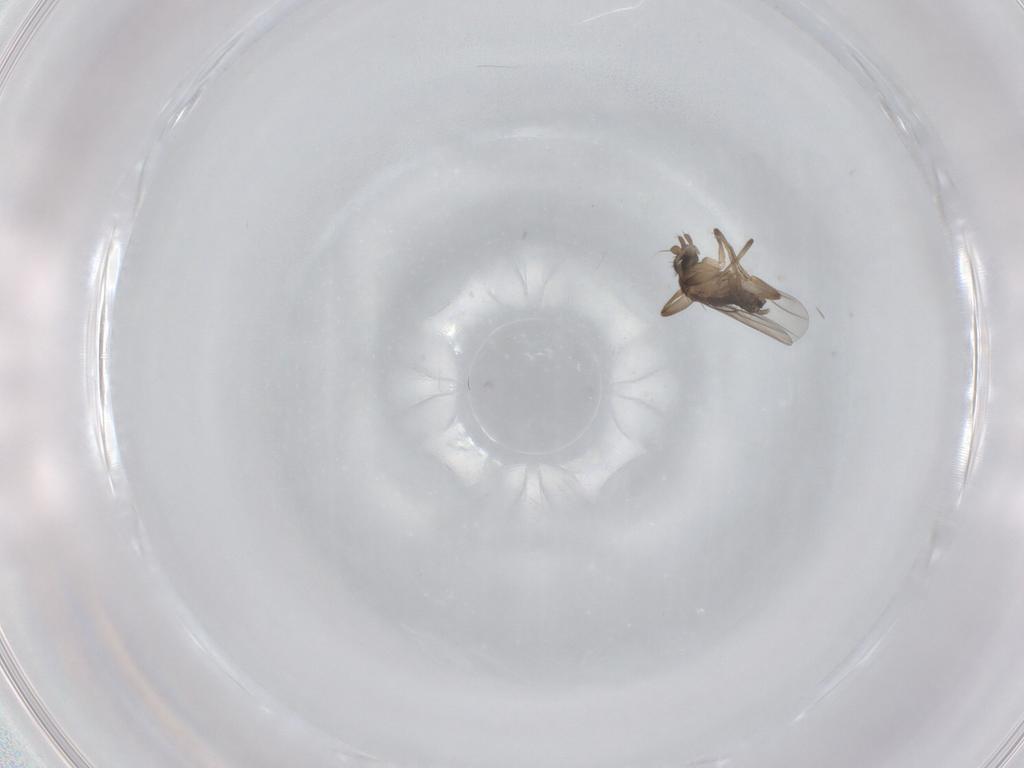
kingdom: Animalia
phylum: Arthropoda
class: Insecta
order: Diptera
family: Phoridae
